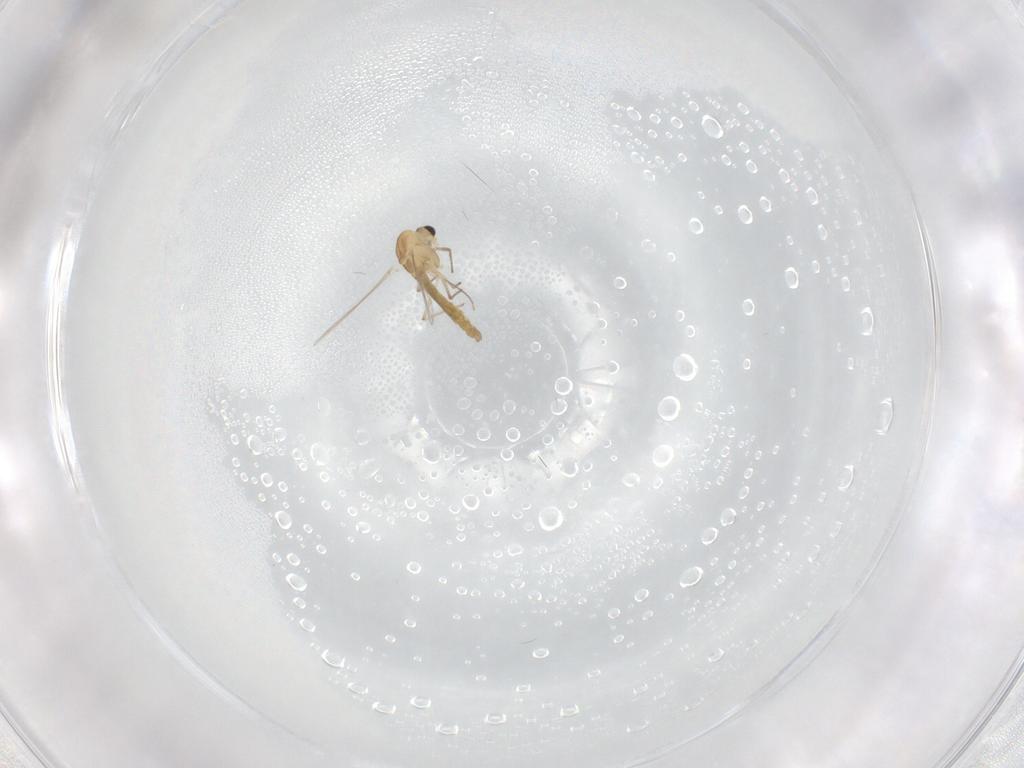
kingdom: Animalia
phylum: Arthropoda
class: Insecta
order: Diptera
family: Chironomidae
